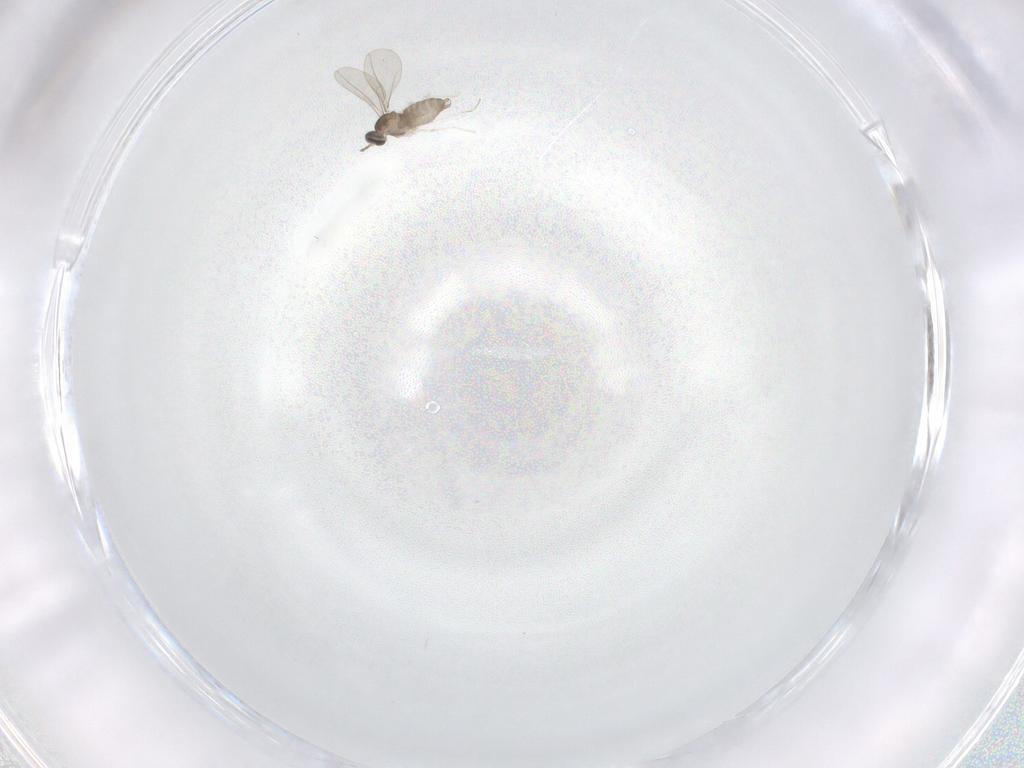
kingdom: Animalia
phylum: Arthropoda
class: Insecta
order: Diptera
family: Cecidomyiidae
